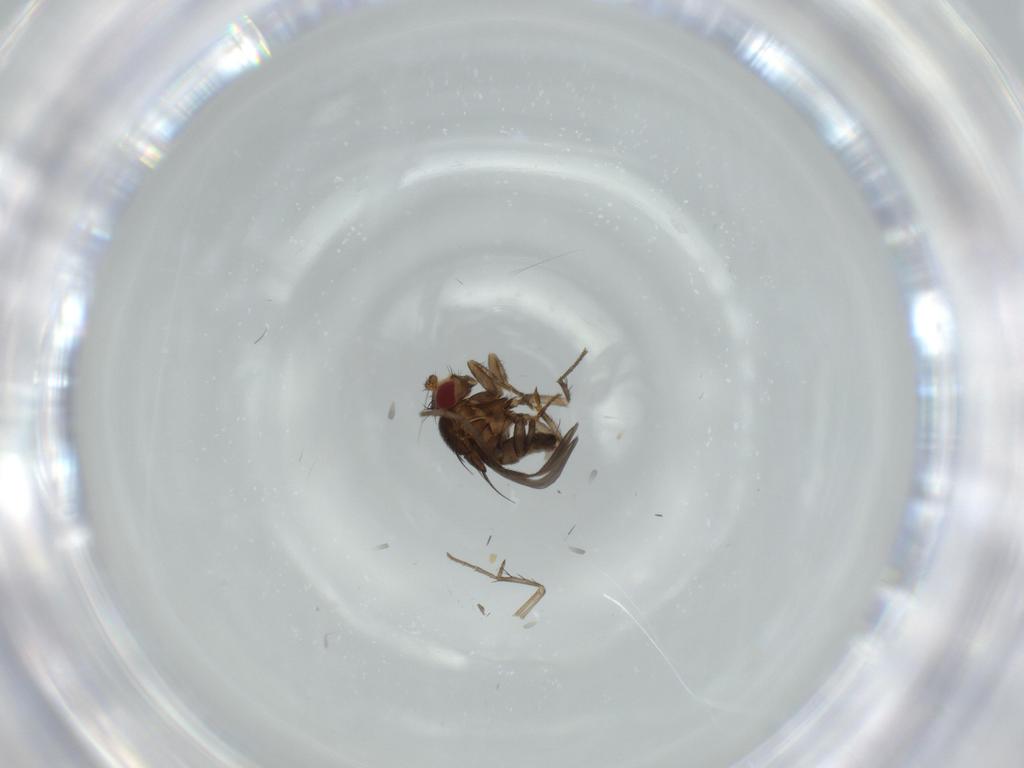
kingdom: Animalia
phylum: Arthropoda
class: Insecta
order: Diptera
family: Cecidomyiidae
